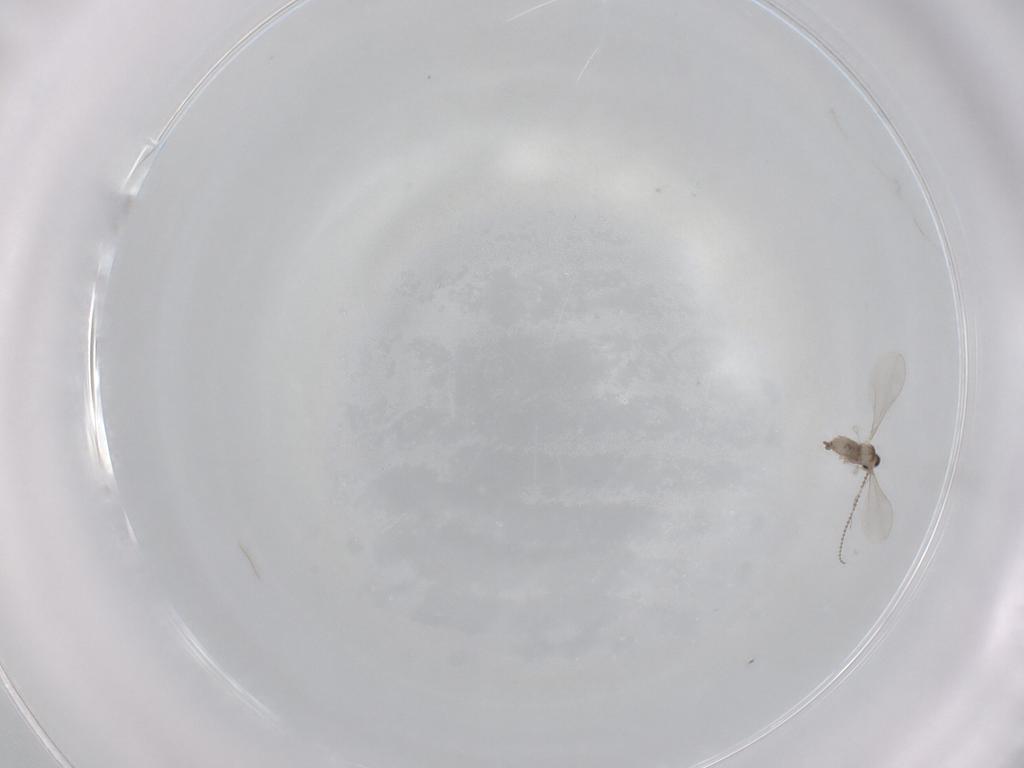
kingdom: Animalia
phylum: Arthropoda
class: Insecta
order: Diptera
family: Cecidomyiidae
